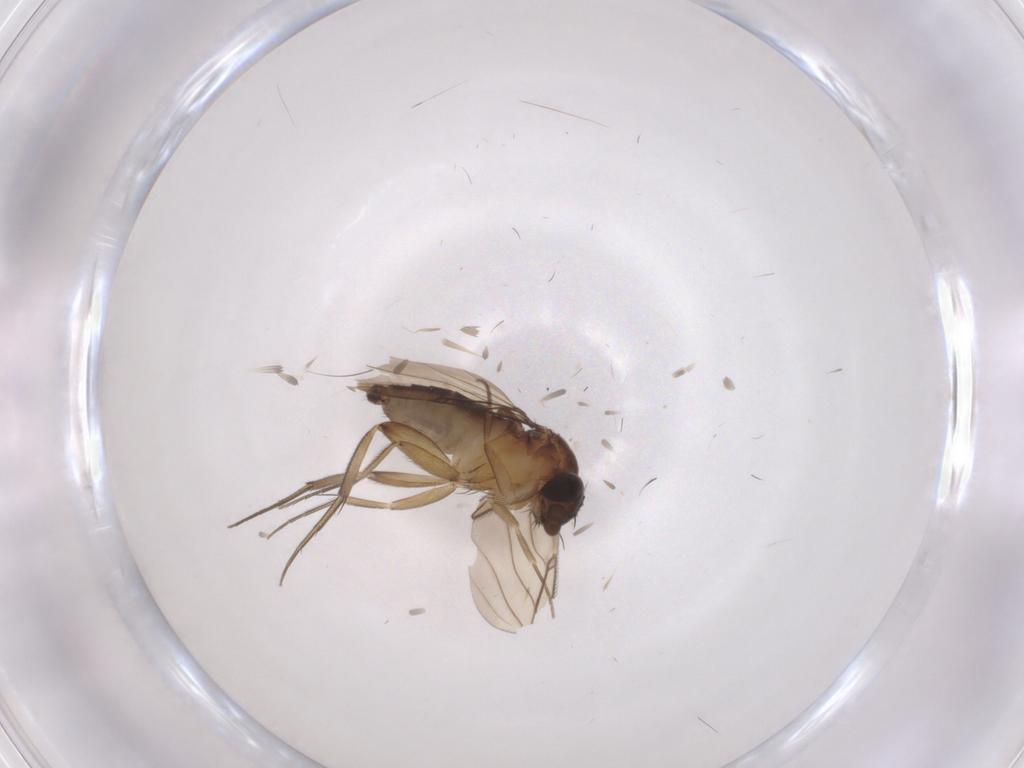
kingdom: Animalia
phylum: Arthropoda
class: Insecta
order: Diptera
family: Phoridae
